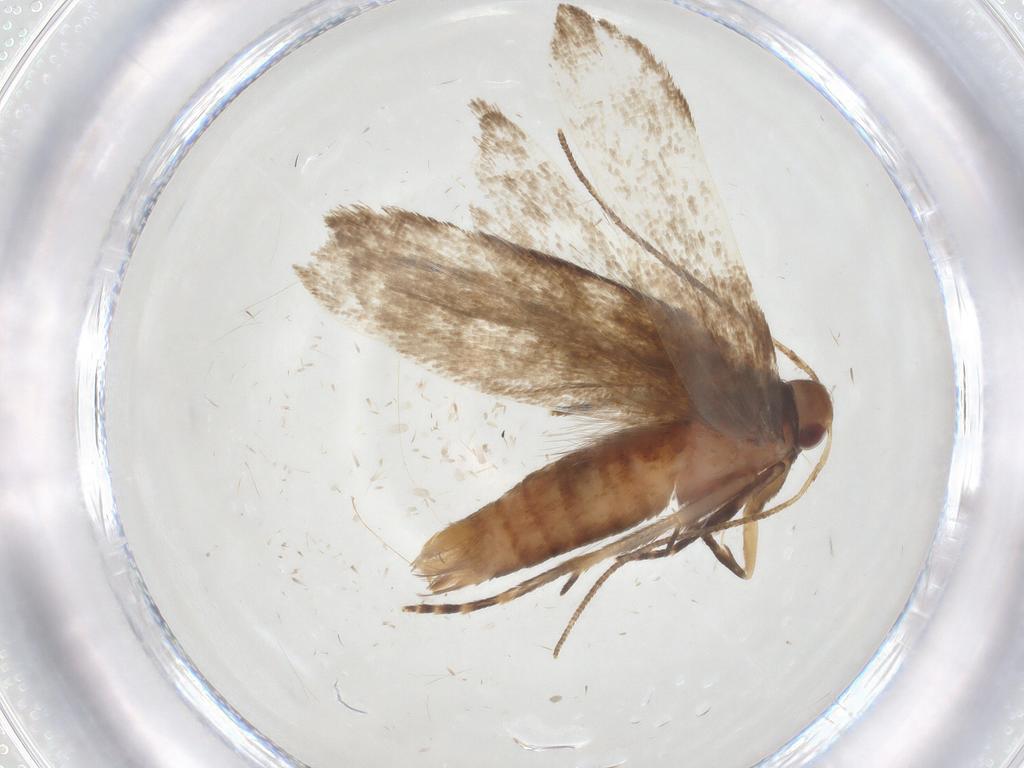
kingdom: Animalia
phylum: Arthropoda
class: Insecta
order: Lepidoptera
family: Gelechiidae
